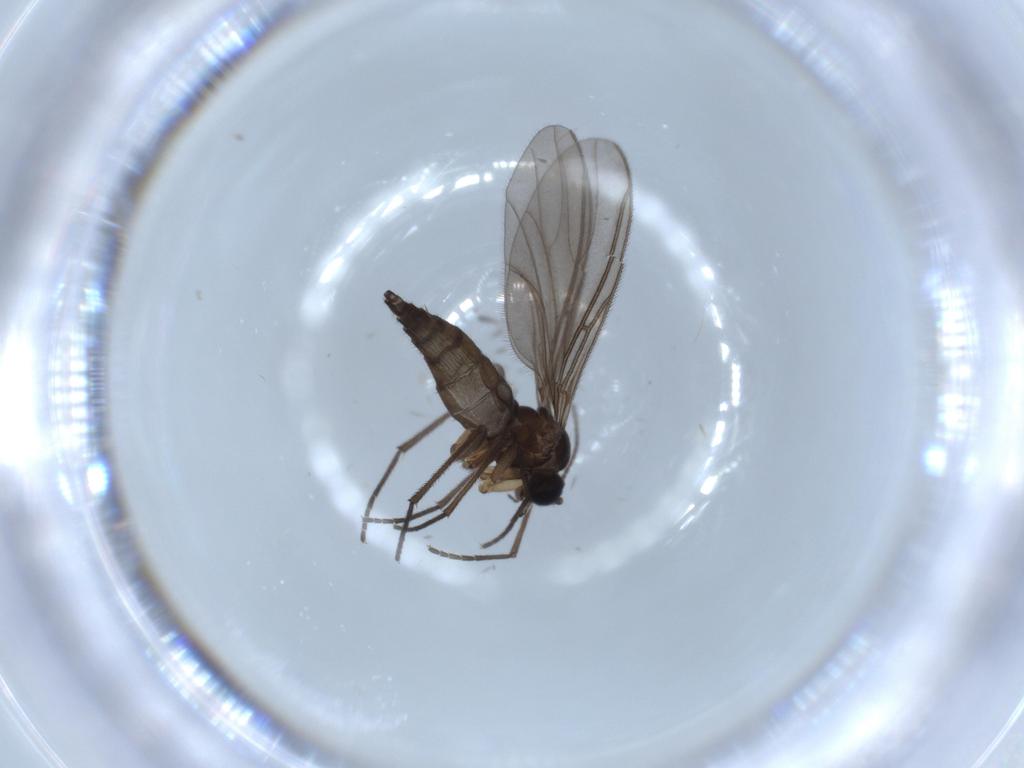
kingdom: Animalia
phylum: Arthropoda
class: Insecta
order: Diptera
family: Sciaridae
